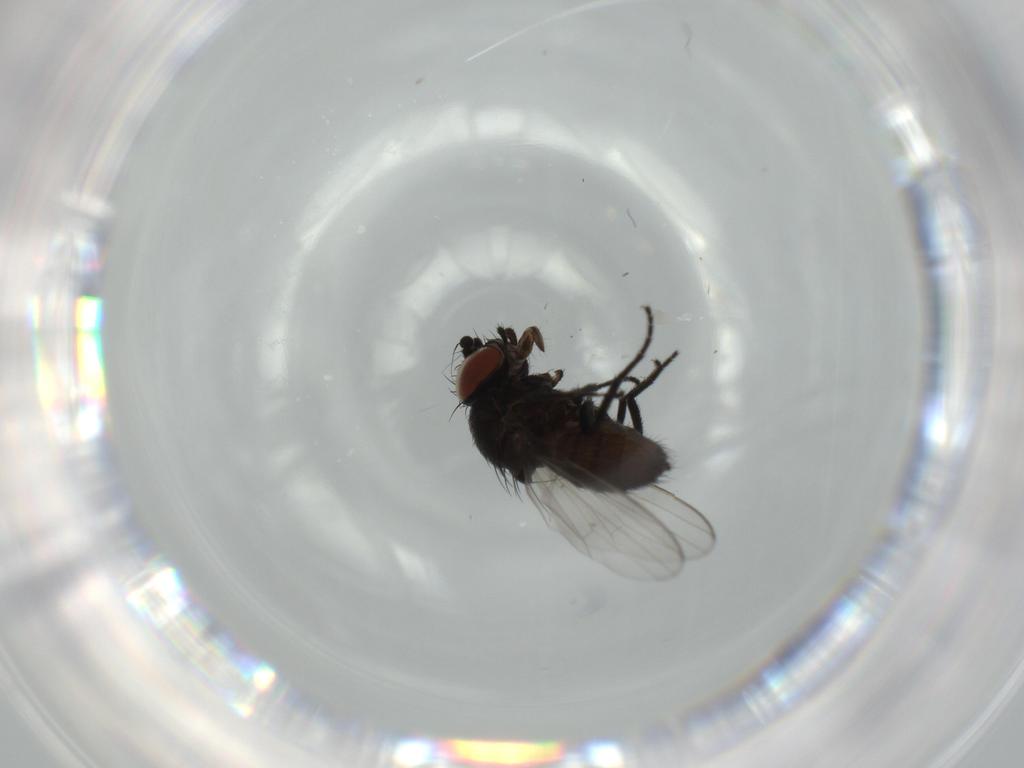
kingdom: Animalia
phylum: Arthropoda
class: Insecta
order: Diptera
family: Milichiidae
